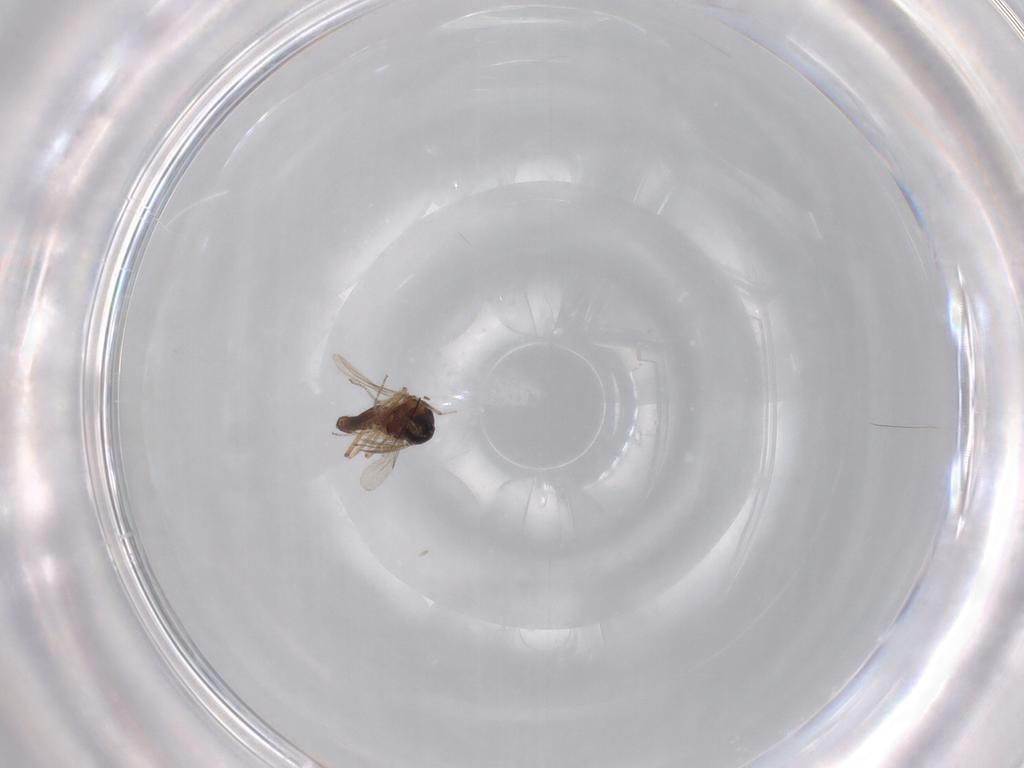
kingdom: Animalia
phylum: Arthropoda
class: Insecta
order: Diptera
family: Ceratopogonidae
